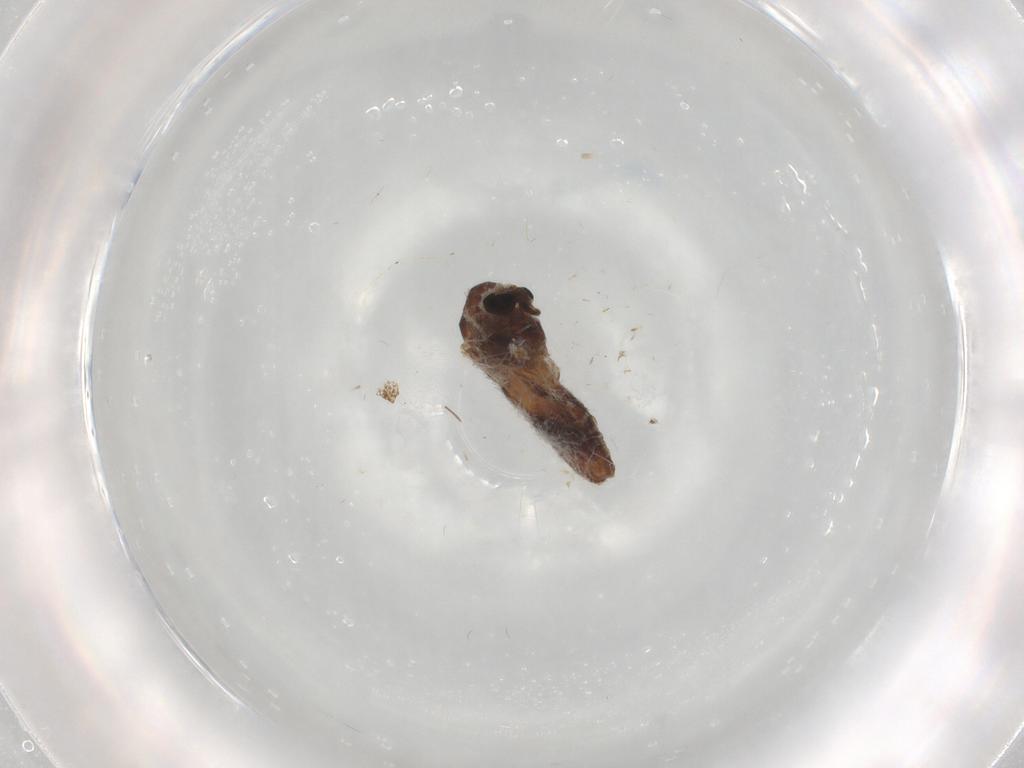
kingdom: Animalia
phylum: Arthropoda
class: Insecta
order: Diptera
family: Chironomidae
